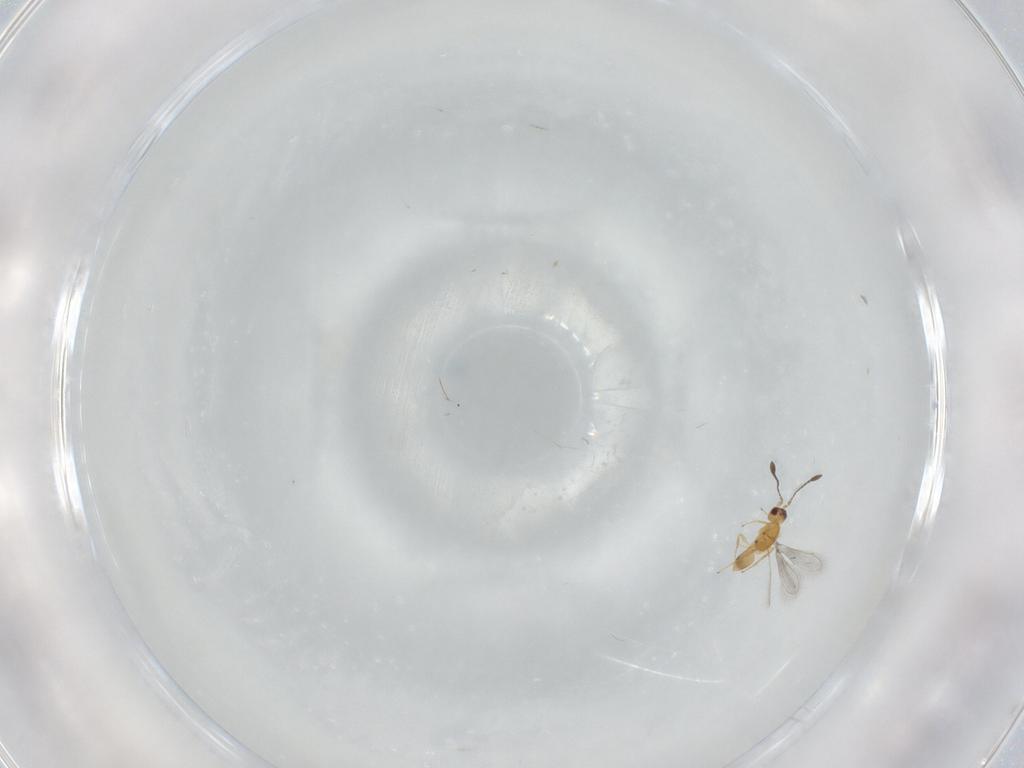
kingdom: Animalia
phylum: Arthropoda
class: Insecta
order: Hymenoptera
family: Mymaridae
